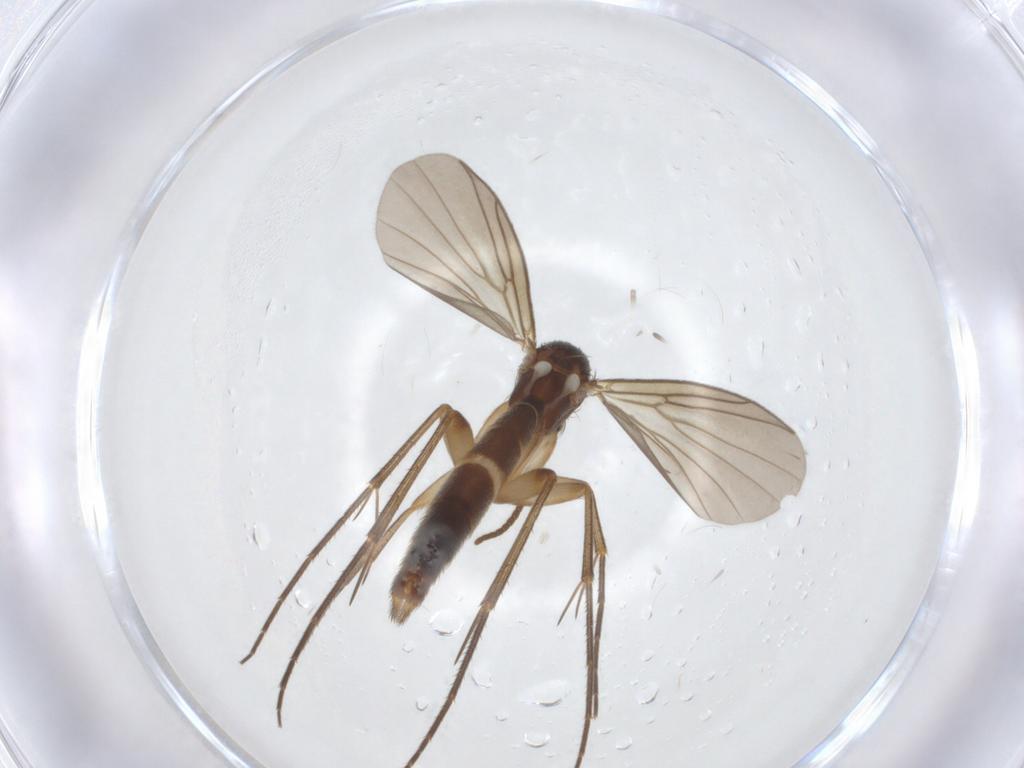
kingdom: Animalia
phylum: Arthropoda
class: Insecta
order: Diptera
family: Mycetophilidae
